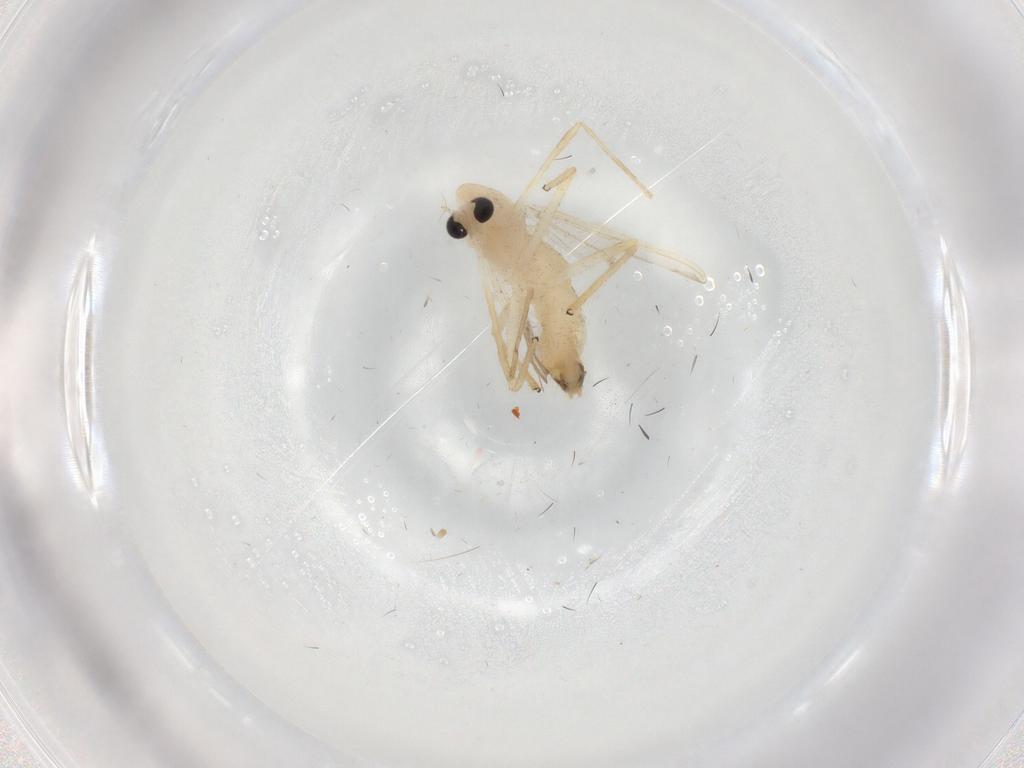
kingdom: Animalia
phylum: Arthropoda
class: Insecta
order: Diptera
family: Chironomidae
